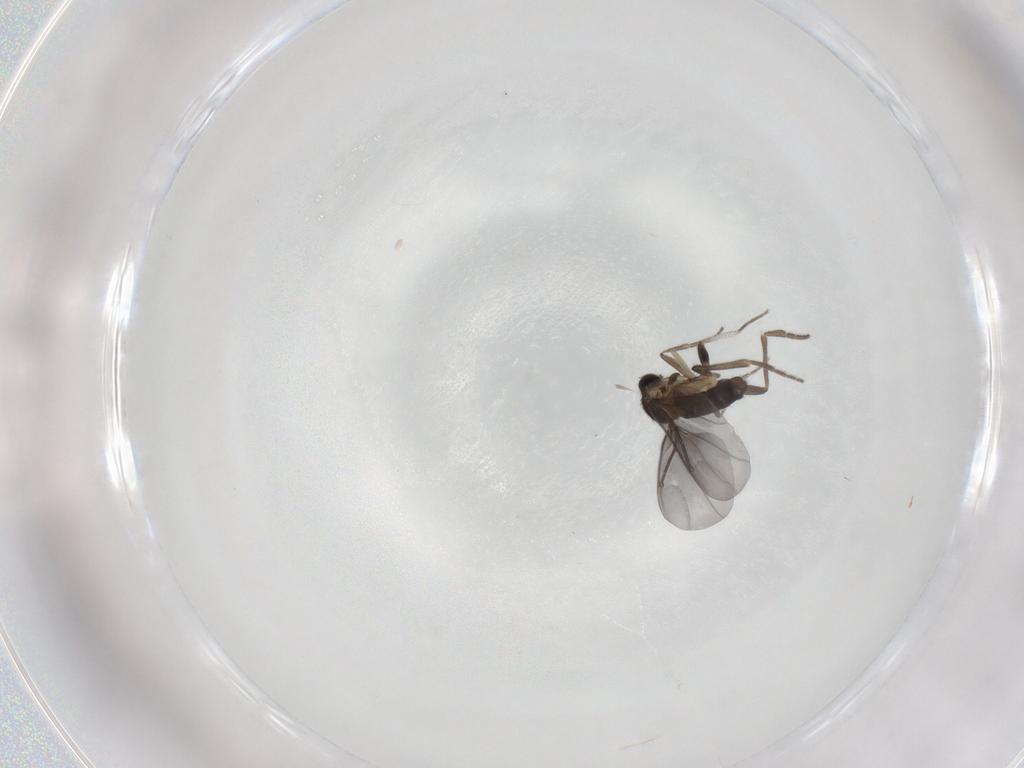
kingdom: Animalia
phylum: Arthropoda
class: Insecta
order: Diptera
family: Phoridae
